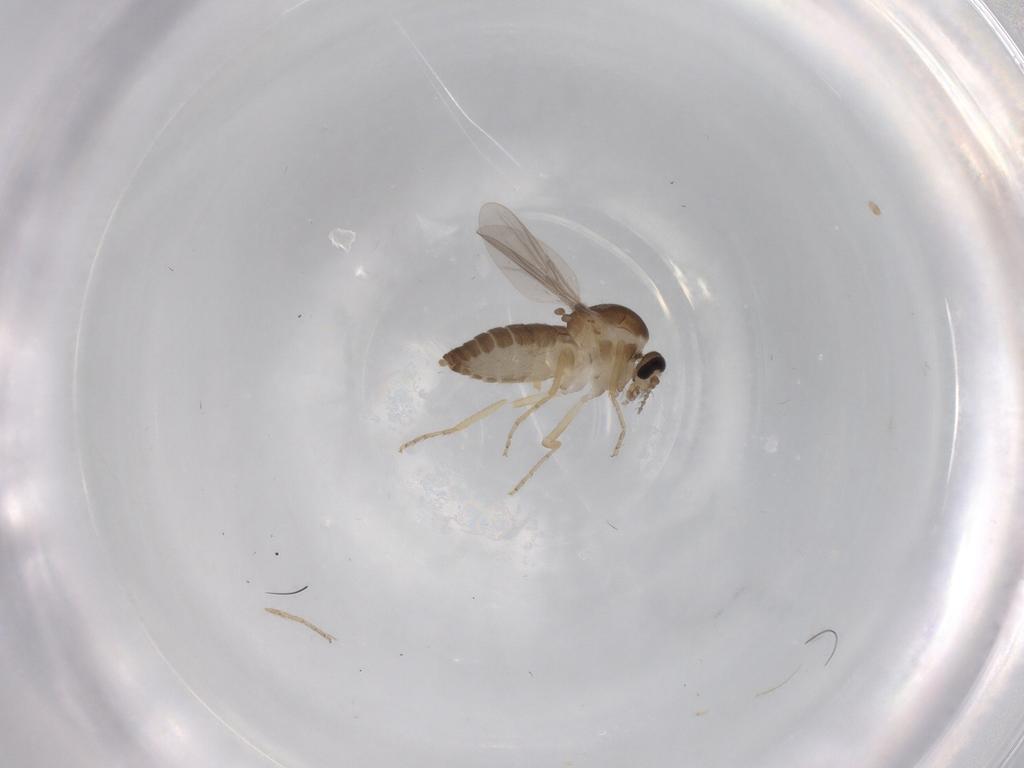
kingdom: Animalia
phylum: Arthropoda
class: Insecta
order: Diptera
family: Ceratopogonidae
